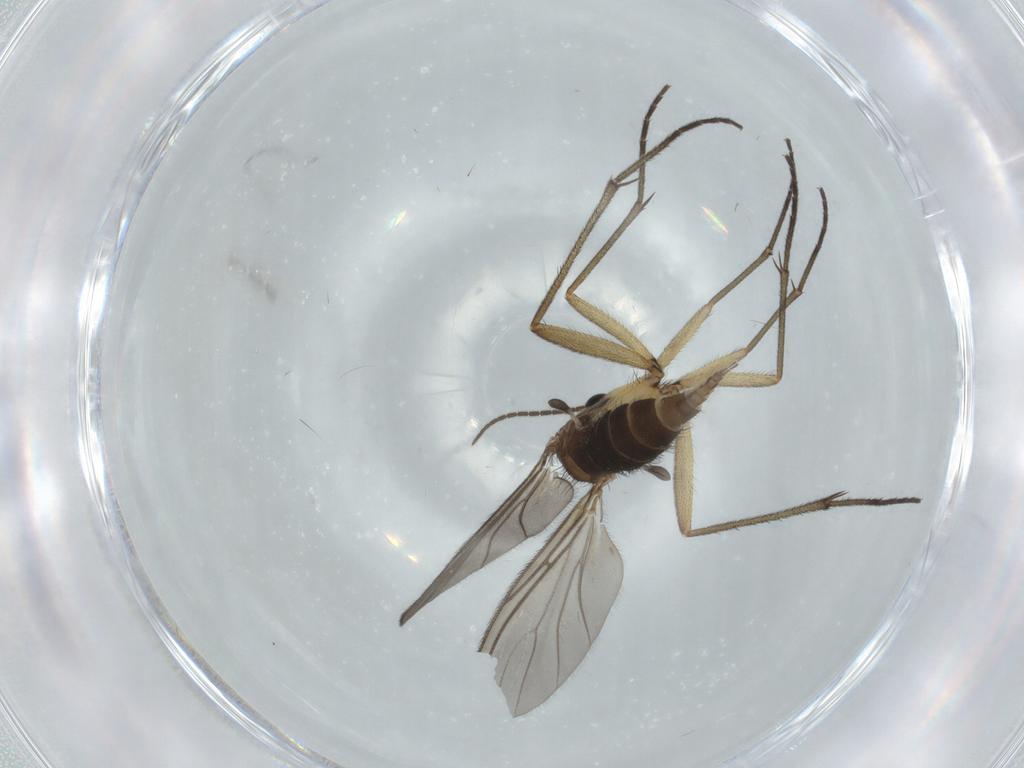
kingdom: Animalia
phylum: Arthropoda
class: Insecta
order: Diptera
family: Sciaridae
